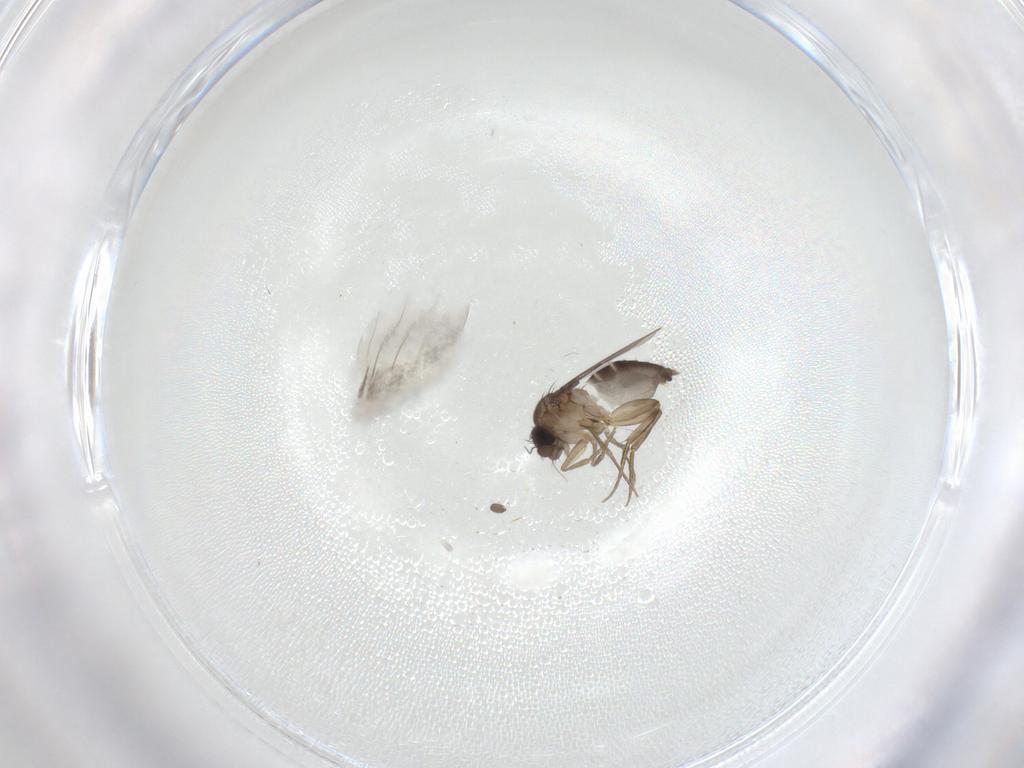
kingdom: Animalia
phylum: Arthropoda
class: Insecta
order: Diptera
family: Phoridae
